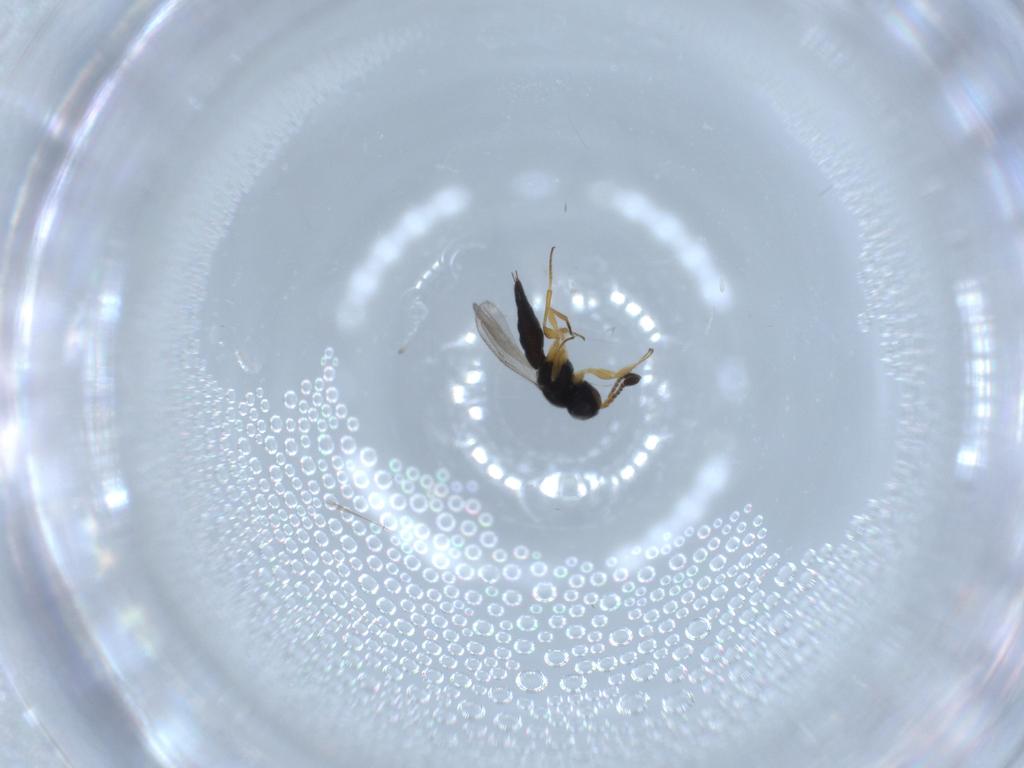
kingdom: Animalia
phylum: Arthropoda
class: Insecta
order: Hymenoptera
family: Scelionidae
